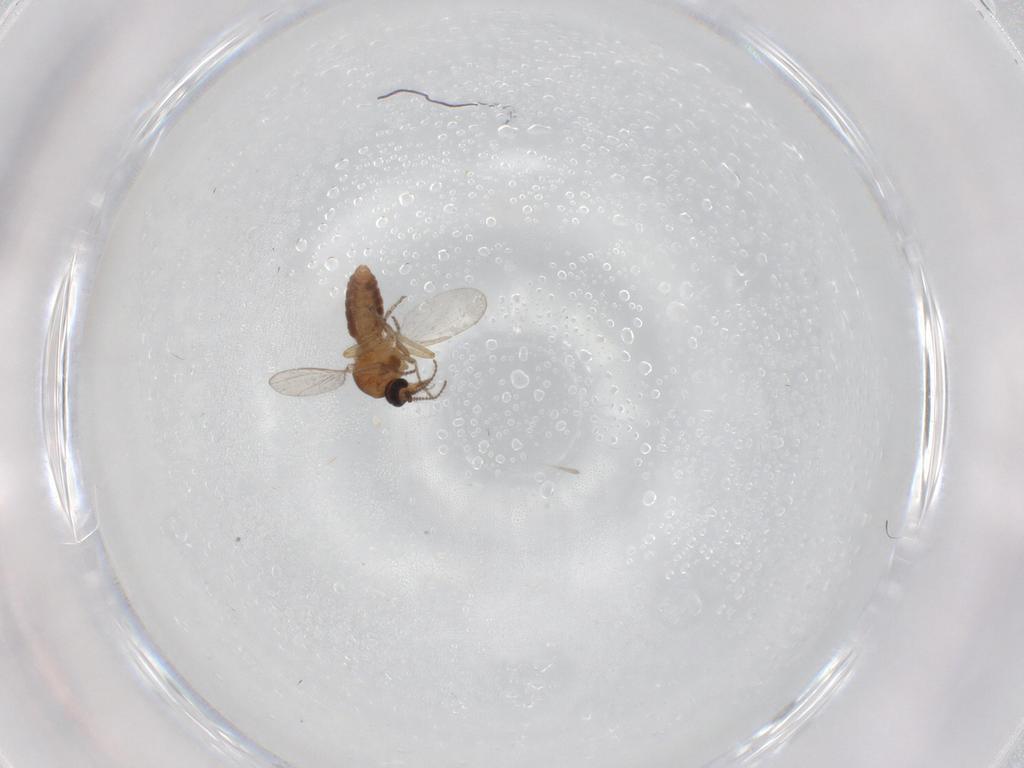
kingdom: Animalia
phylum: Arthropoda
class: Insecta
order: Diptera
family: Ceratopogonidae
